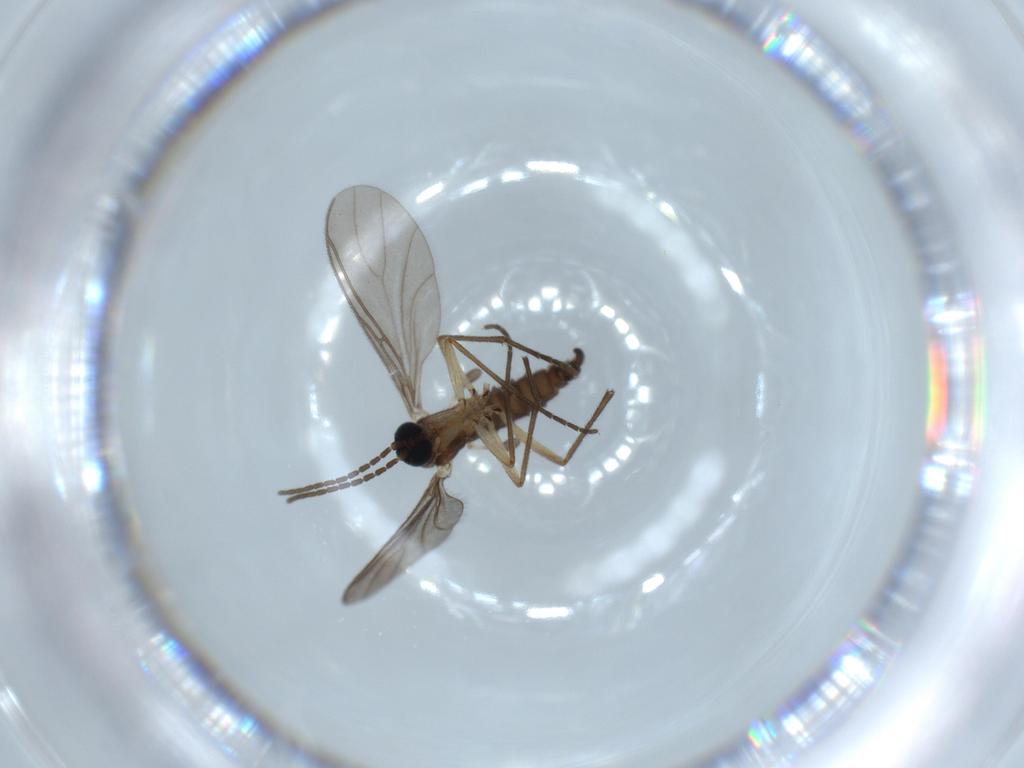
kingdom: Animalia
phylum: Arthropoda
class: Insecta
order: Diptera
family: Sciaridae
